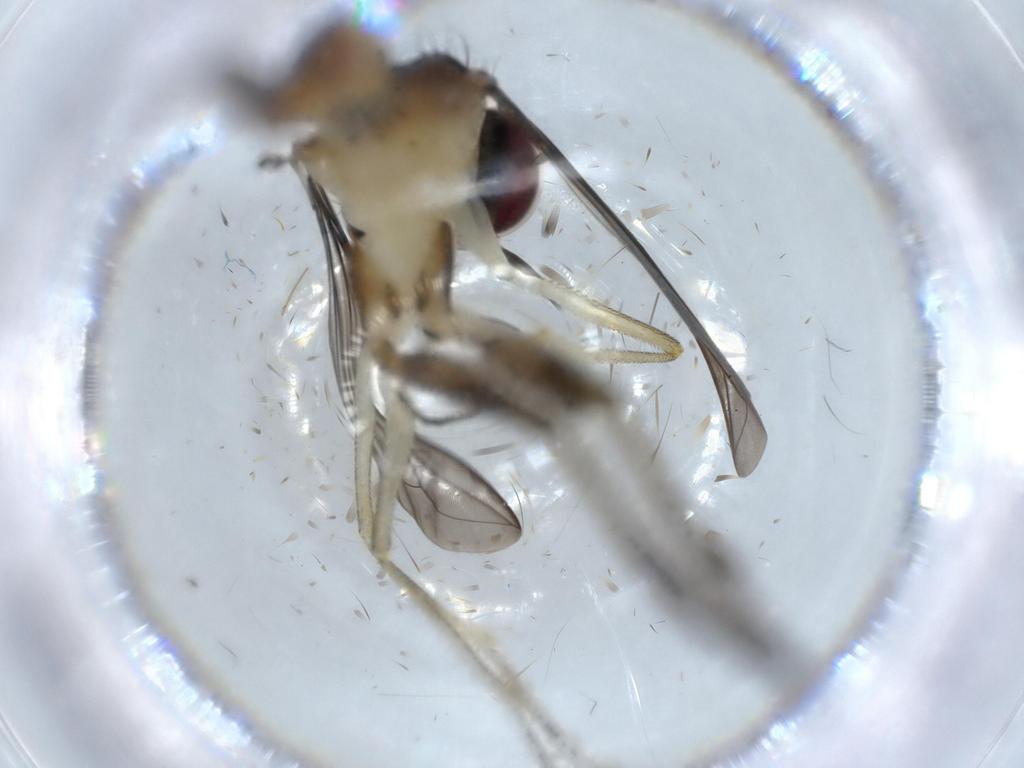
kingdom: Animalia
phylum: Arthropoda
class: Insecta
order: Diptera
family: Conopidae
